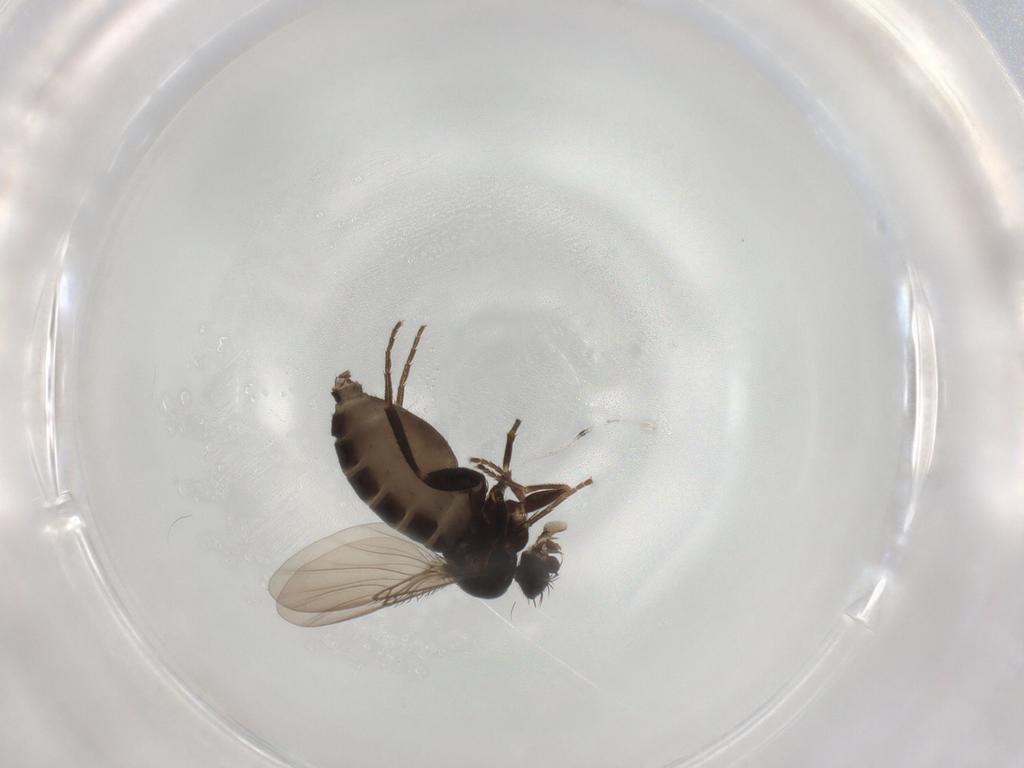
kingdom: Animalia
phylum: Arthropoda
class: Insecta
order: Diptera
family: Phoridae
